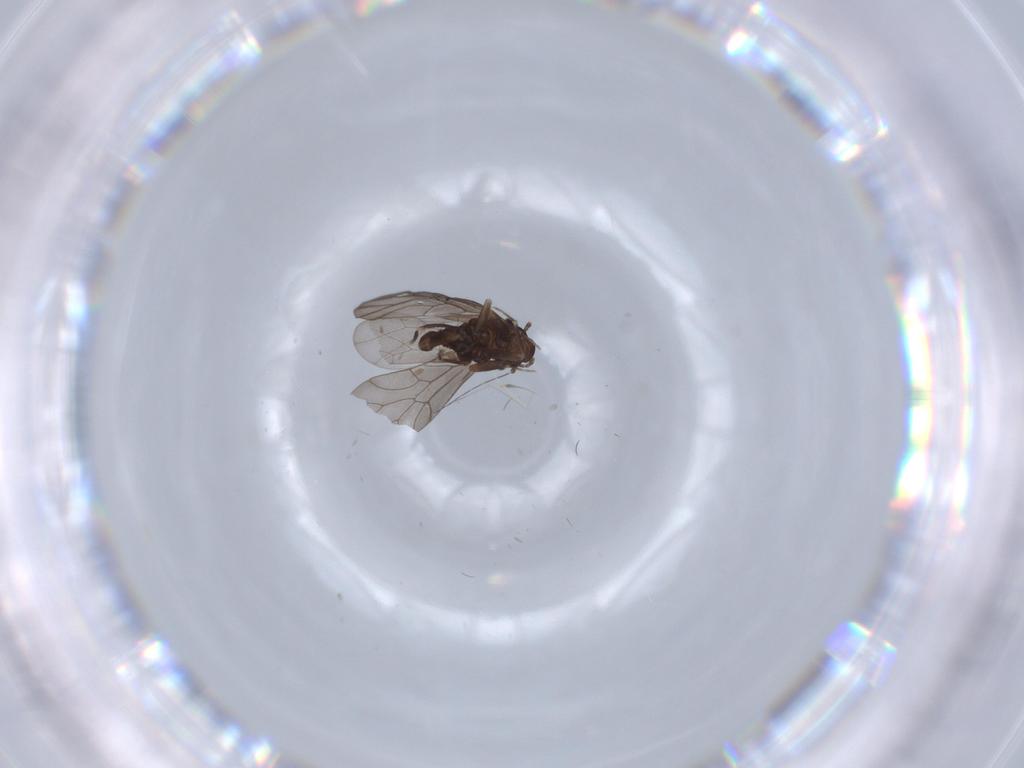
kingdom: Animalia
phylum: Arthropoda
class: Insecta
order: Psocodea
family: Lepidopsocidae
